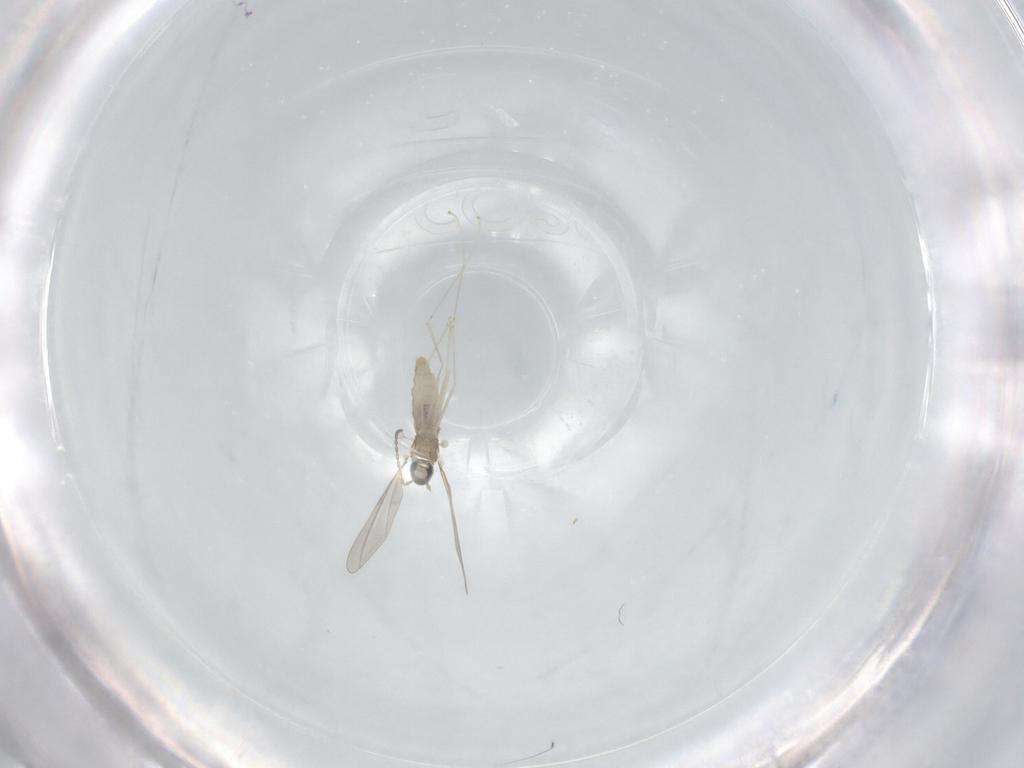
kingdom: Animalia
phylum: Arthropoda
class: Insecta
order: Diptera
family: Cecidomyiidae
